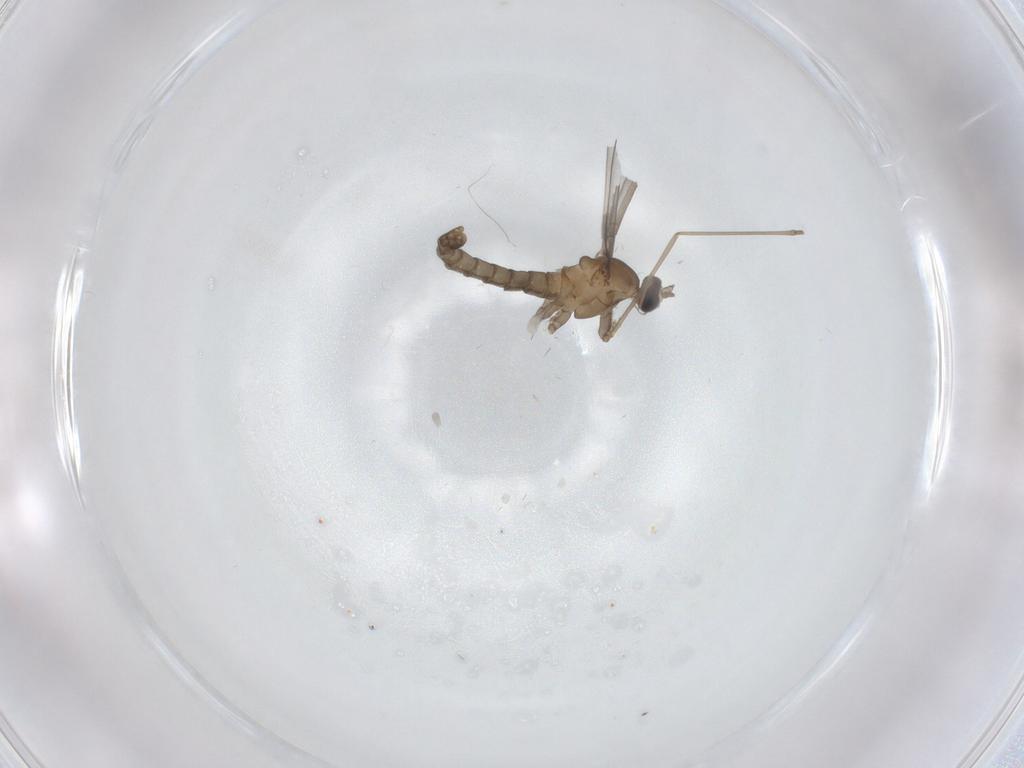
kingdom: Animalia
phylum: Arthropoda
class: Insecta
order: Diptera
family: Cecidomyiidae
